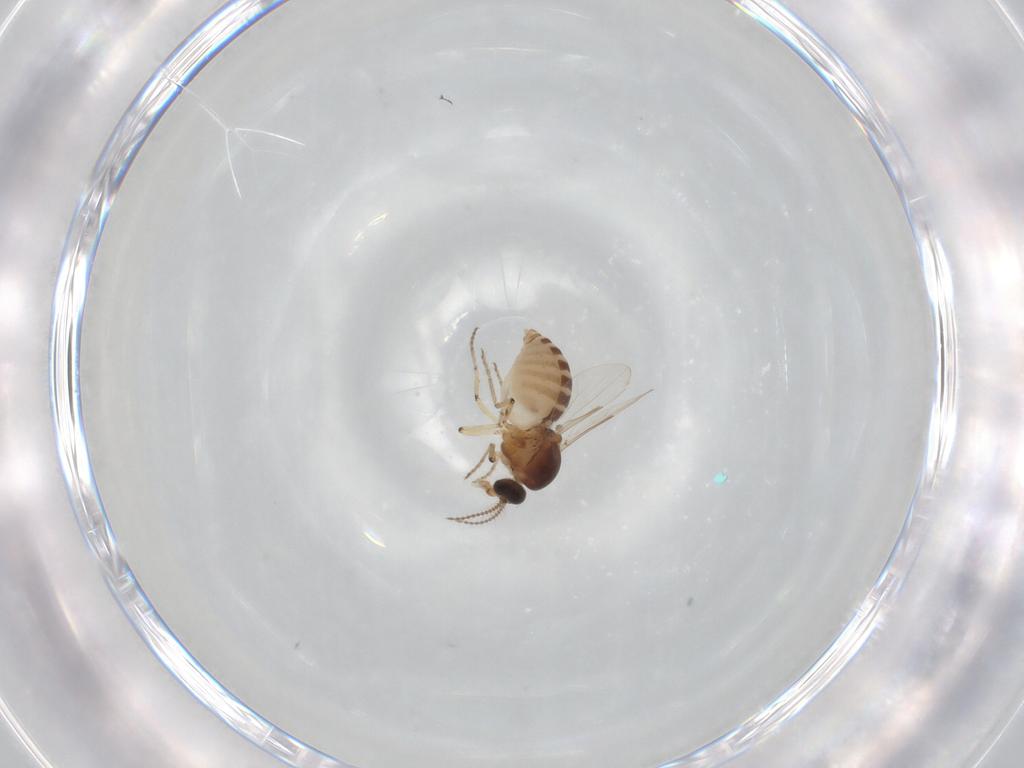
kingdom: Animalia
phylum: Arthropoda
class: Insecta
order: Diptera
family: Ceratopogonidae
